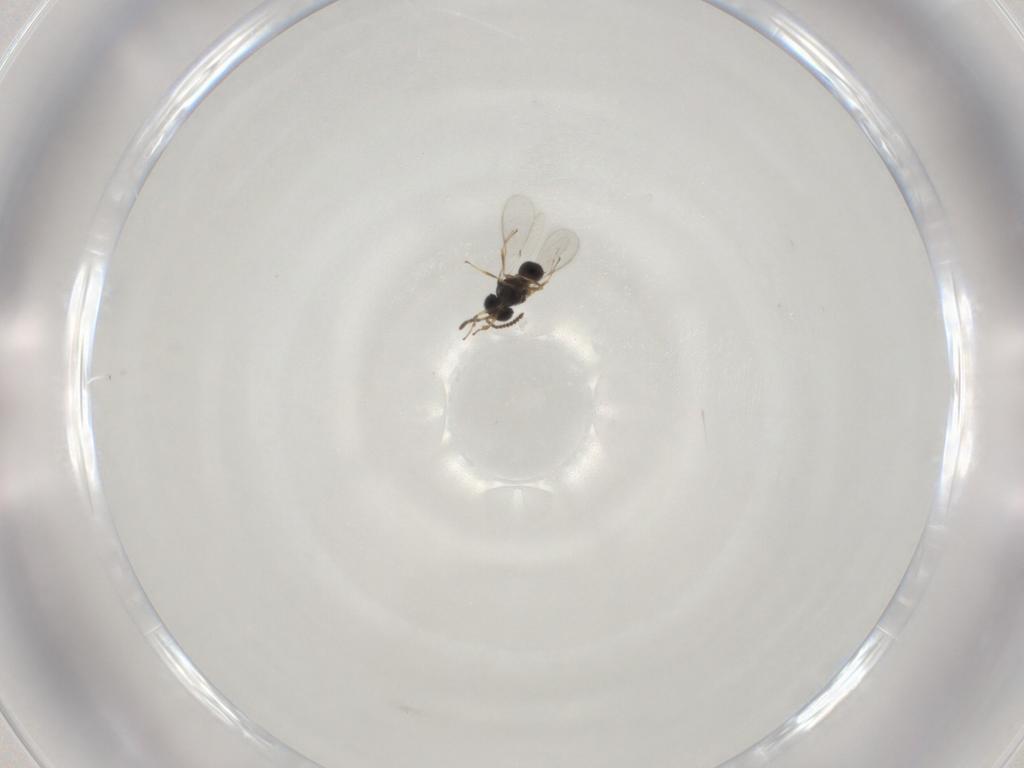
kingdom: Animalia
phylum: Arthropoda
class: Insecta
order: Hymenoptera
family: Scelionidae
